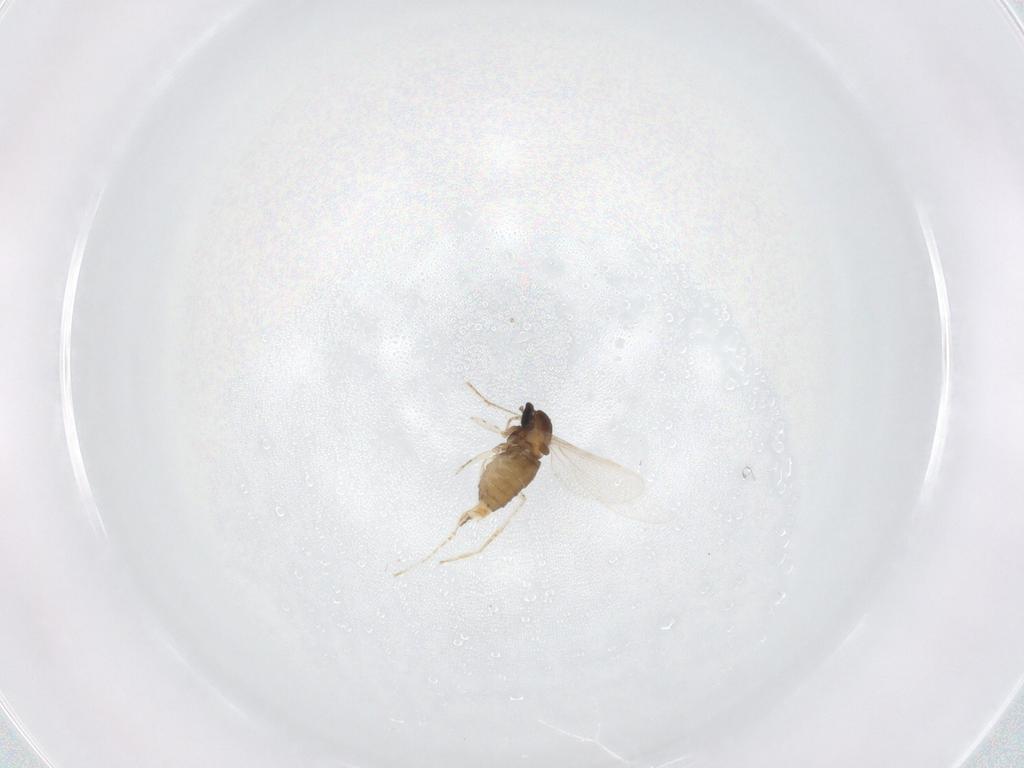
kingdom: Animalia
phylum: Arthropoda
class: Insecta
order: Diptera
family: Cecidomyiidae
